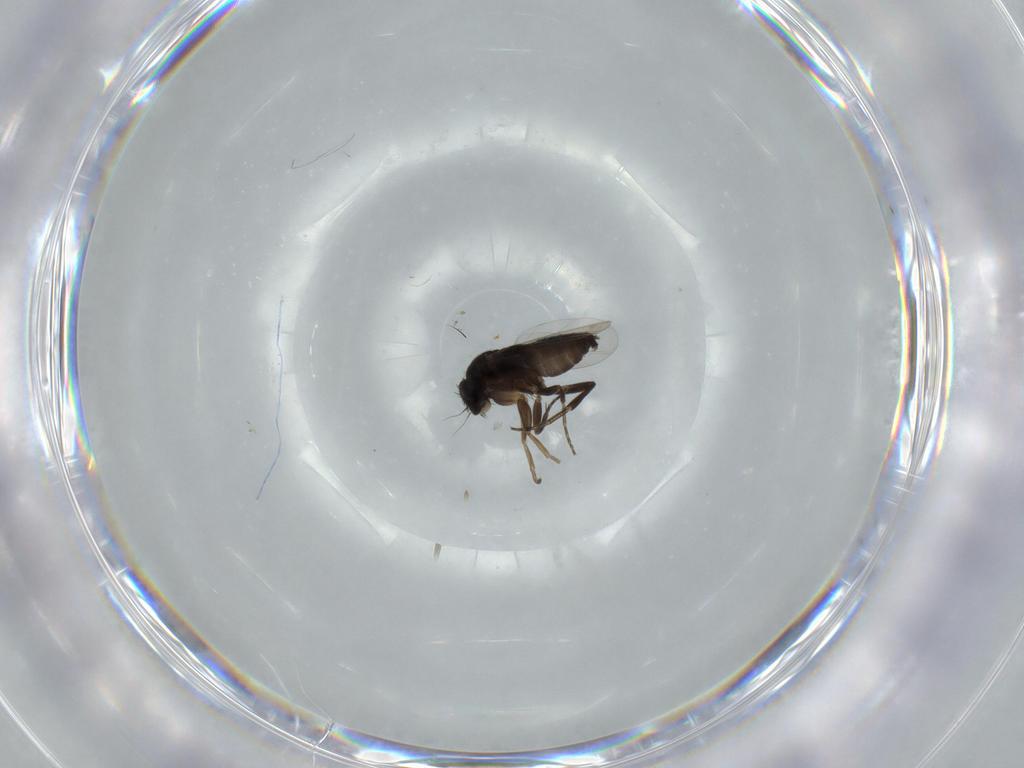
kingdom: Animalia
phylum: Arthropoda
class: Insecta
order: Diptera
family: Phoridae
